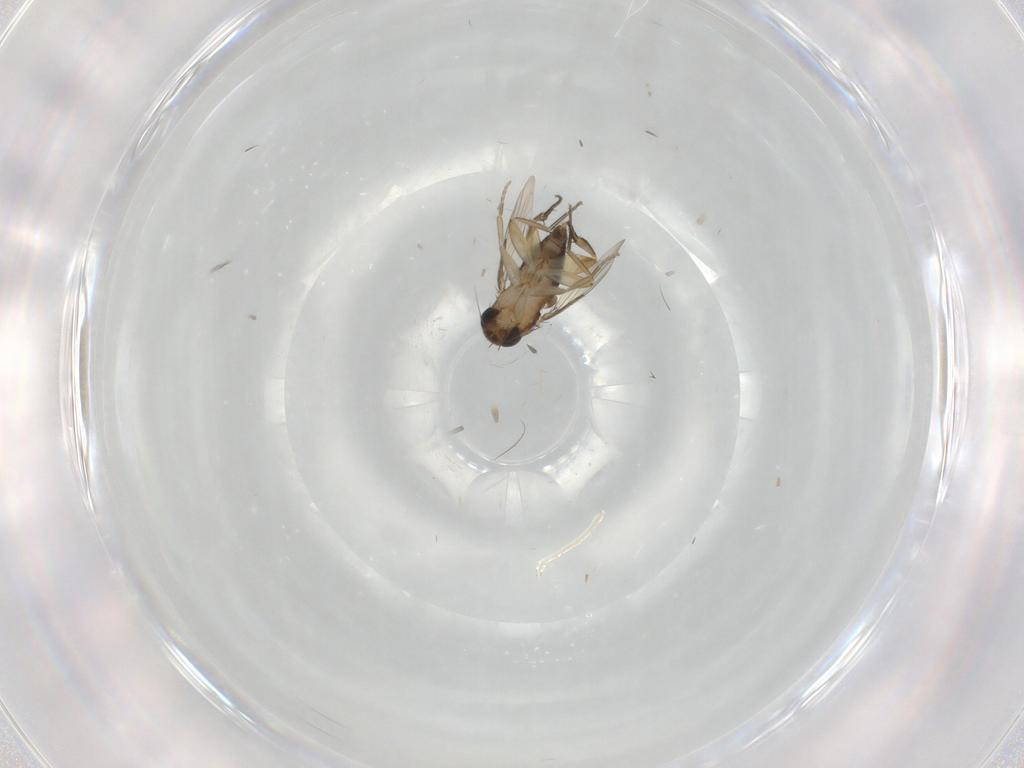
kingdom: Animalia
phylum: Arthropoda
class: Insecta
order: Diptera
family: Phoridae
